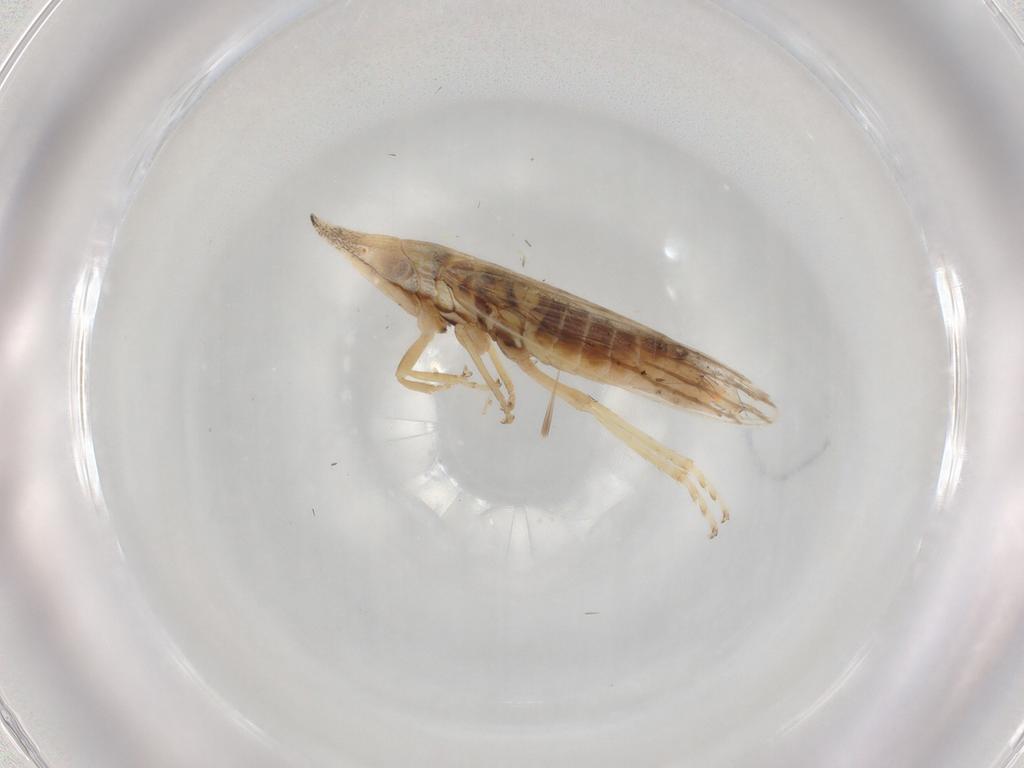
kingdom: Animalia
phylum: Arthropoda
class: Insecta
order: Hemiptera
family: Cicadellidae
